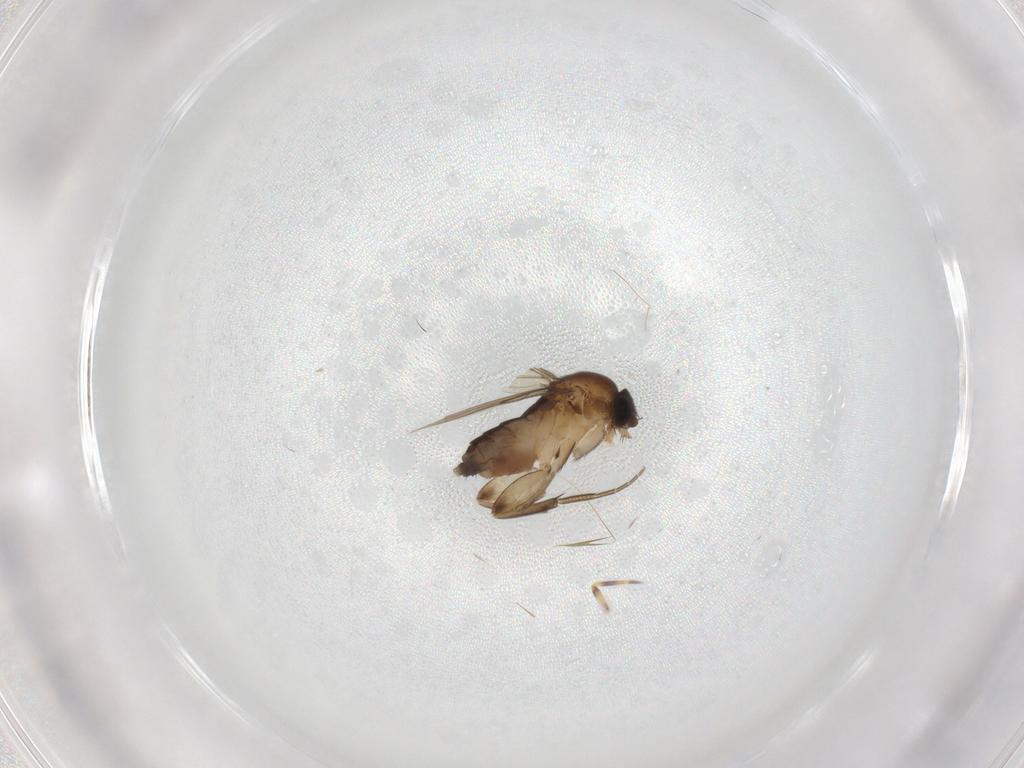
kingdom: Animalia
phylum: Arthropoda
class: Insecta
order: Diptera
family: Phoridae
